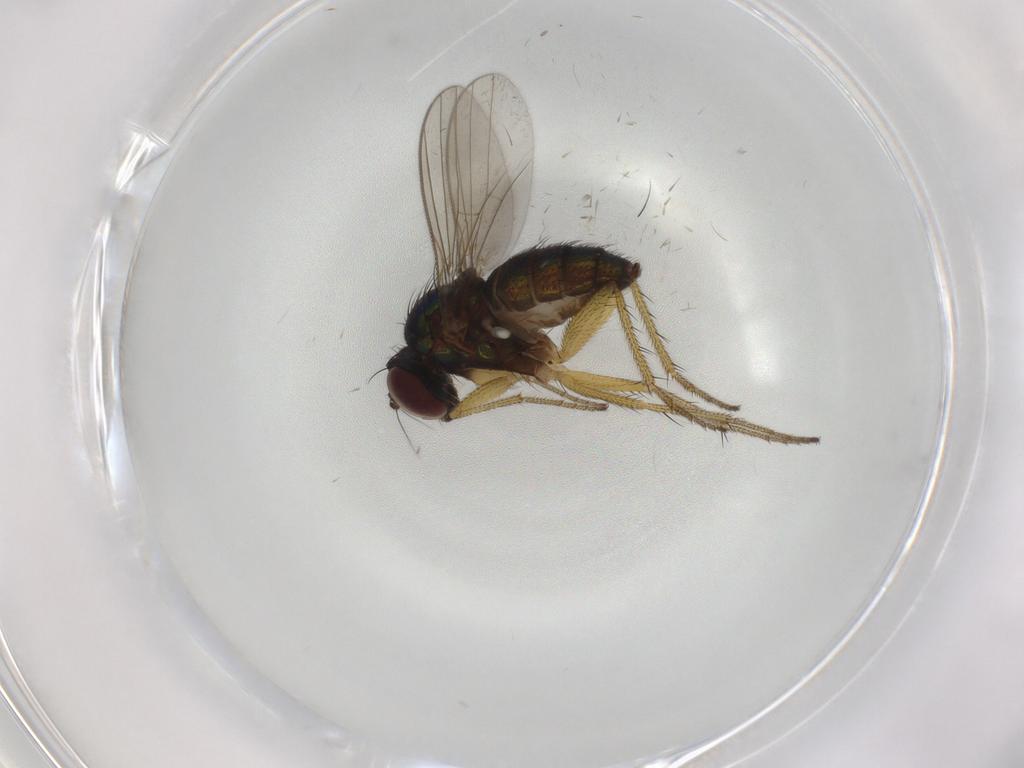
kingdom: Animalia
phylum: Arthropoda
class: Insecta
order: Diptera
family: Sciaridae
